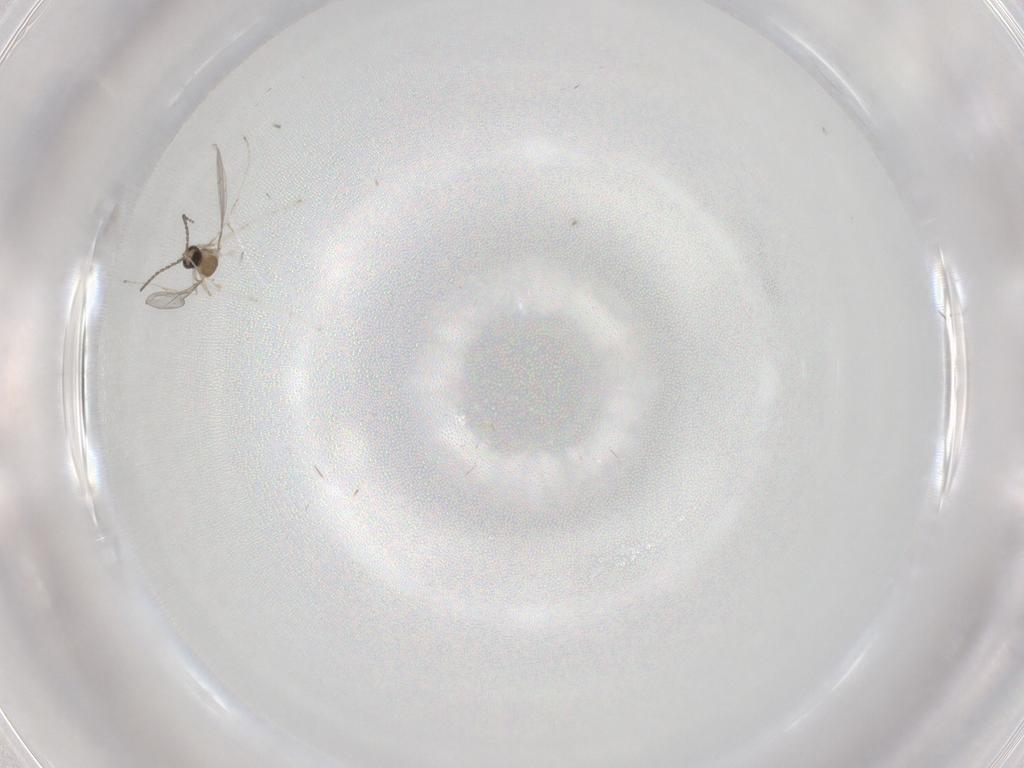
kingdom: Animalia
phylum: Arthropoda
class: Insecta
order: Diptera
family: Cecidomyiidae
